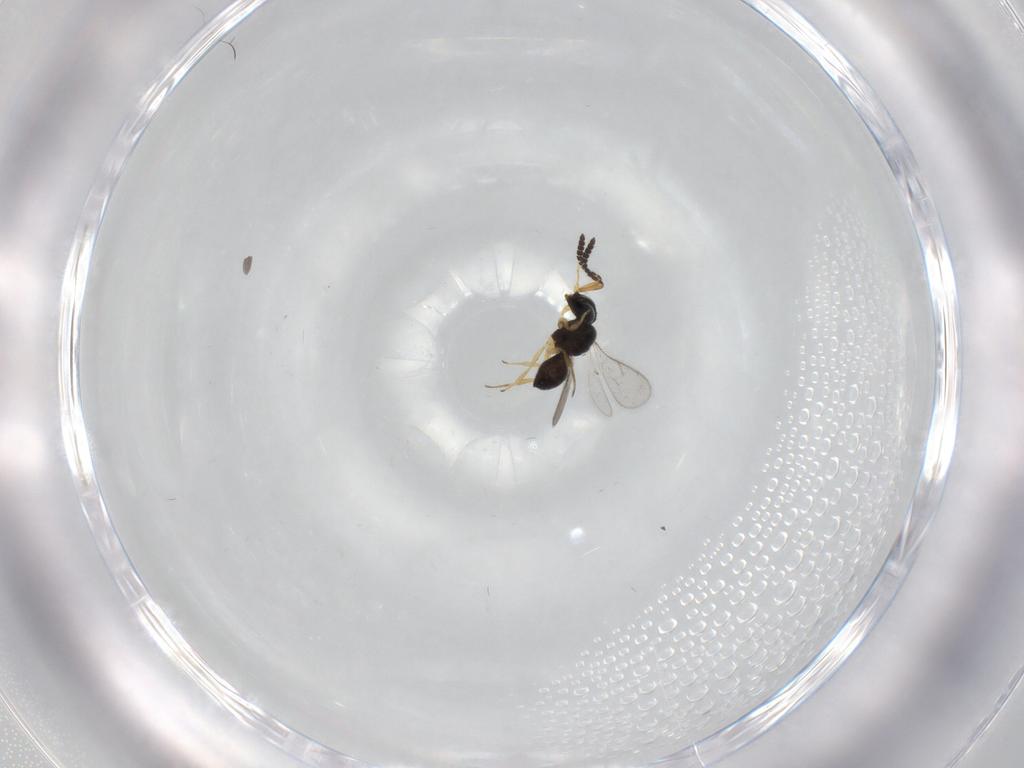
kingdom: Animalia
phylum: Arthropoda
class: Insecta
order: Hymenoptera
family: Scelionidae
